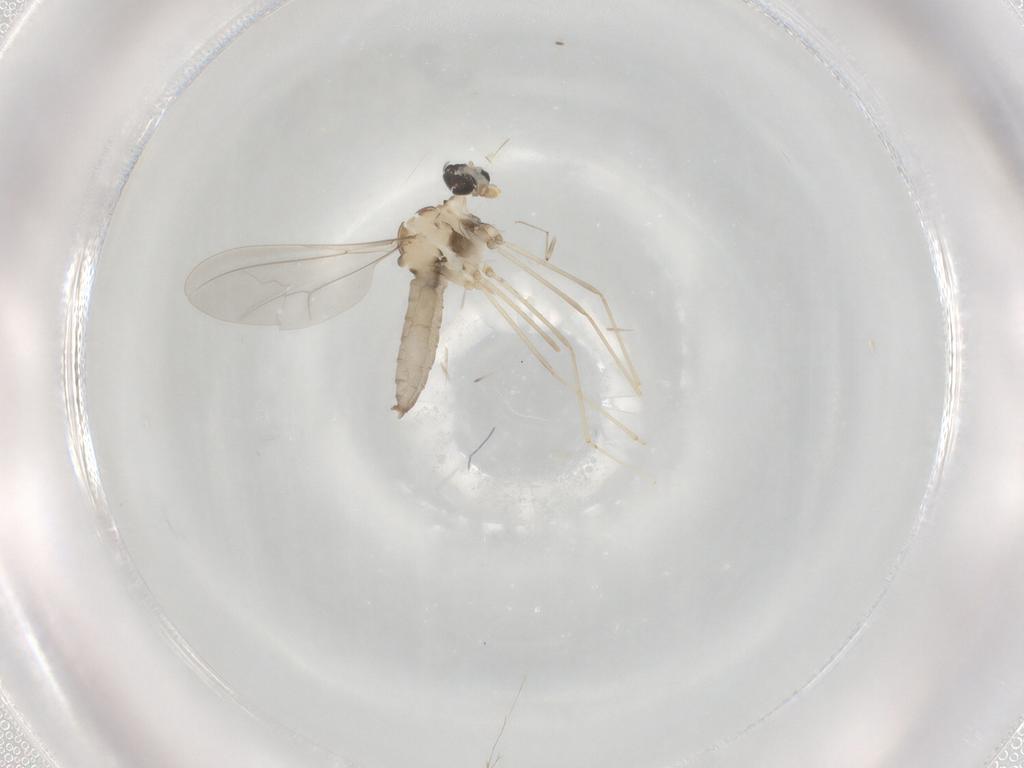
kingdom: Animalia
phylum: Arthropoda
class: Insecta
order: Diptera
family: Cecidomyiidae
